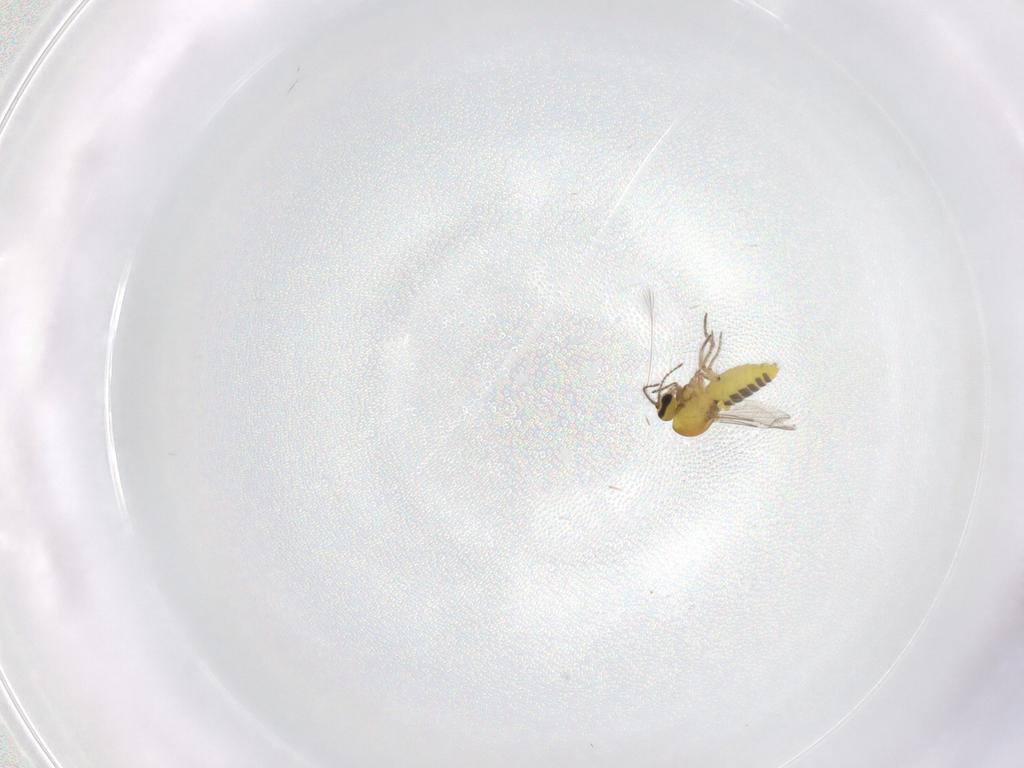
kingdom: Animalia
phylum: Arthropoda
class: Insecta
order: Diptera
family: Ceratopogonidae
